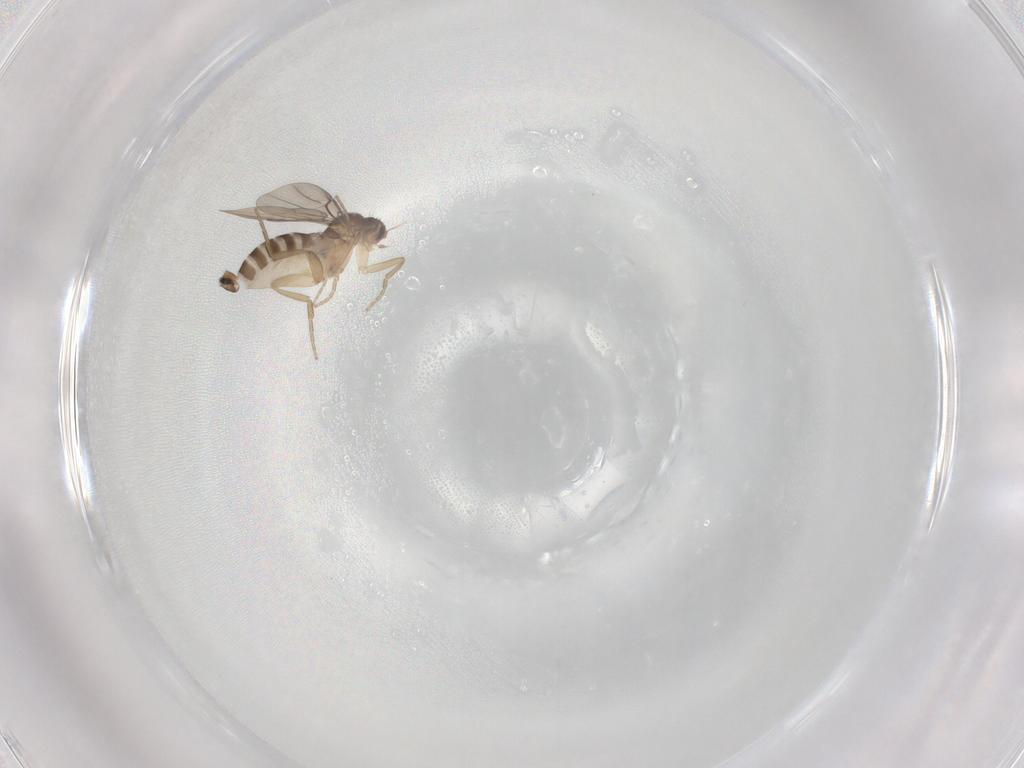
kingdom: Animalia
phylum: Arthropoda
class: Insecta
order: Diptera
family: Phoridae
